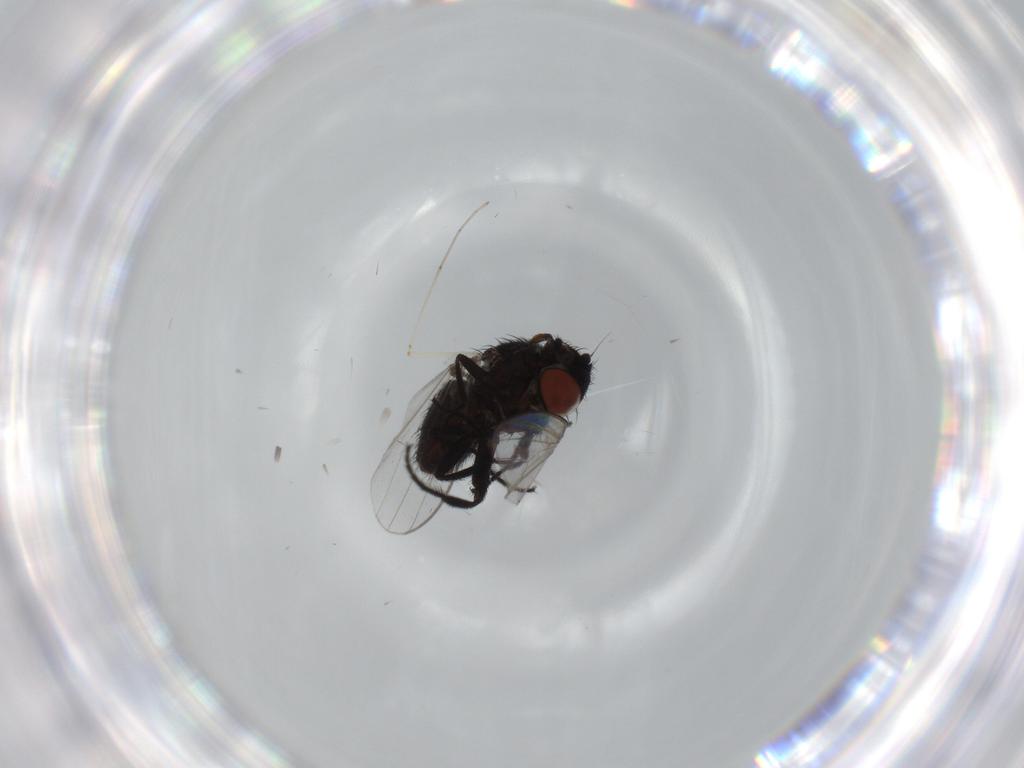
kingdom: Animalia
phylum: Arthropoda
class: Insecta
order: Diptera
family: Cecidomyiidae
